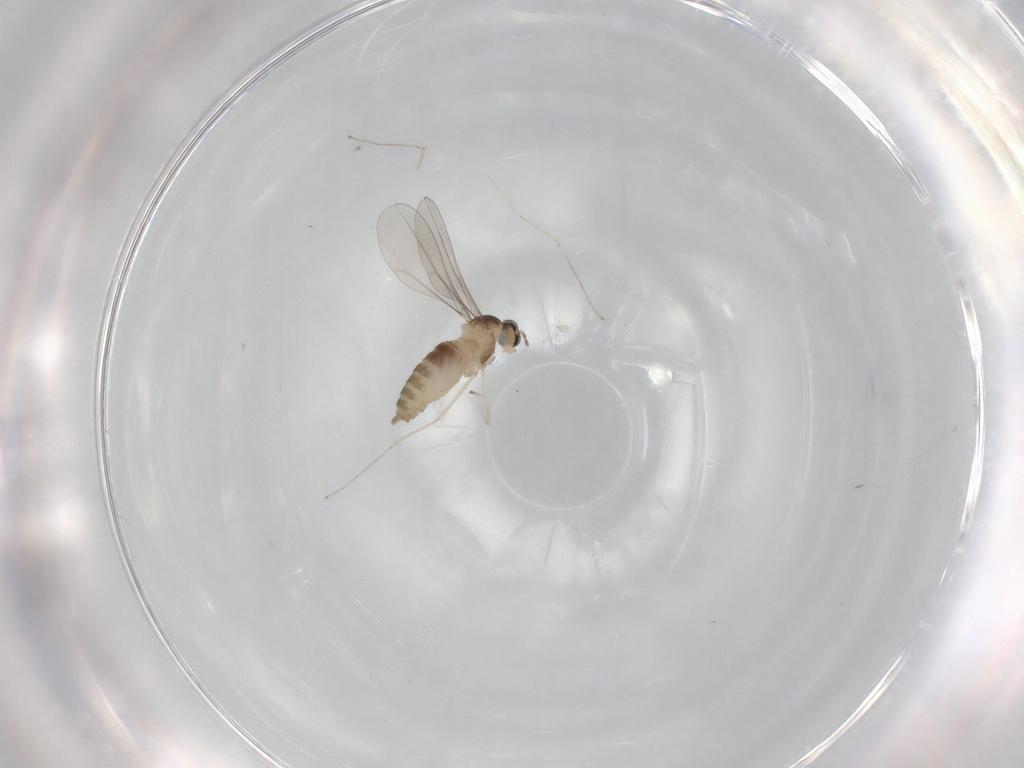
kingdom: Animalia
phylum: Arthropoda
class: Insecta
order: Diptera
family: Cecidomyiidae
